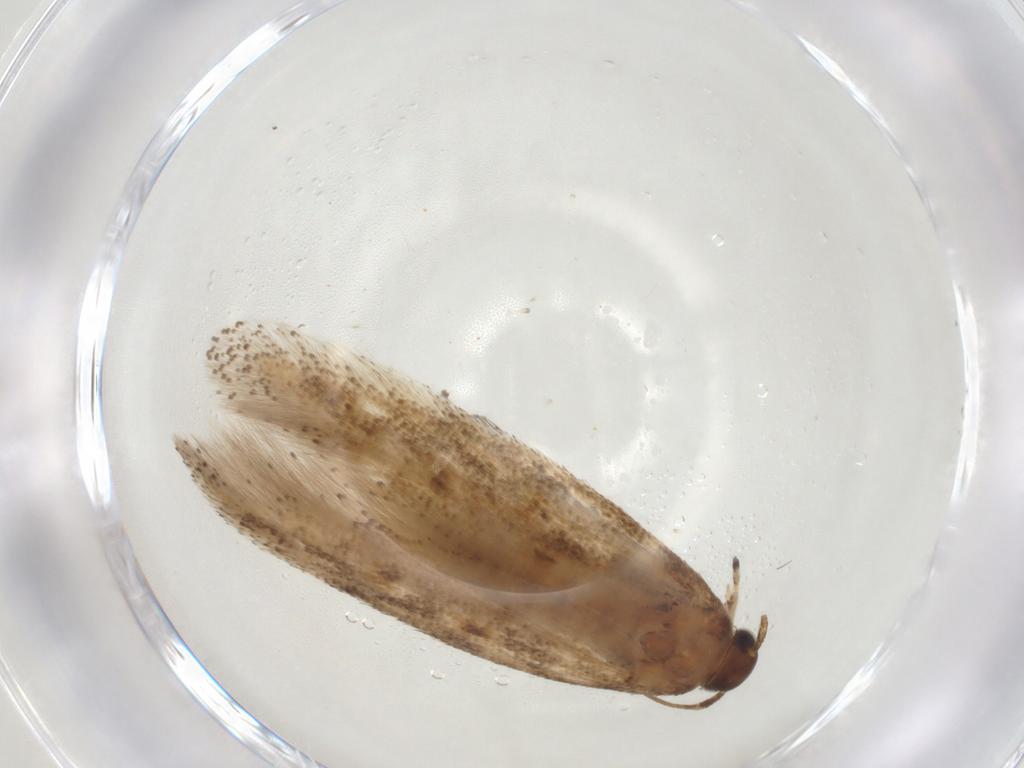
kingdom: Animalia
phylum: Arthropoda
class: Insecta
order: Lepidoptera
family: Gelechiidae
